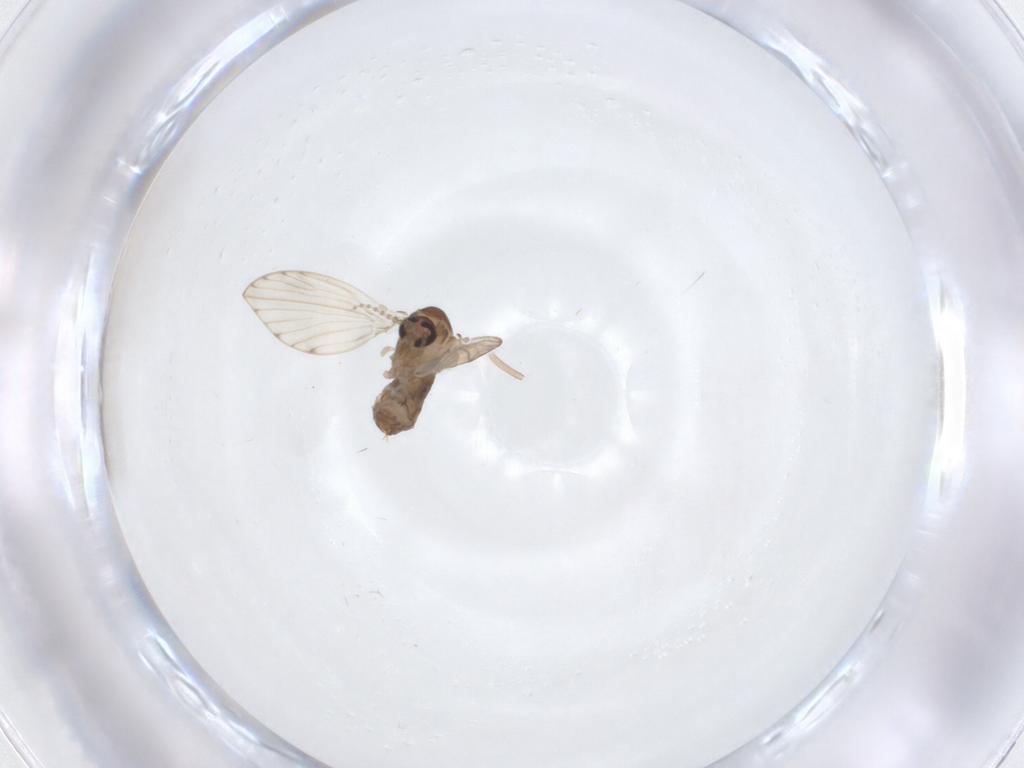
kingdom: Animalia
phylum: Arthropoda
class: Insecta
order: Diptera
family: Psychodidae
